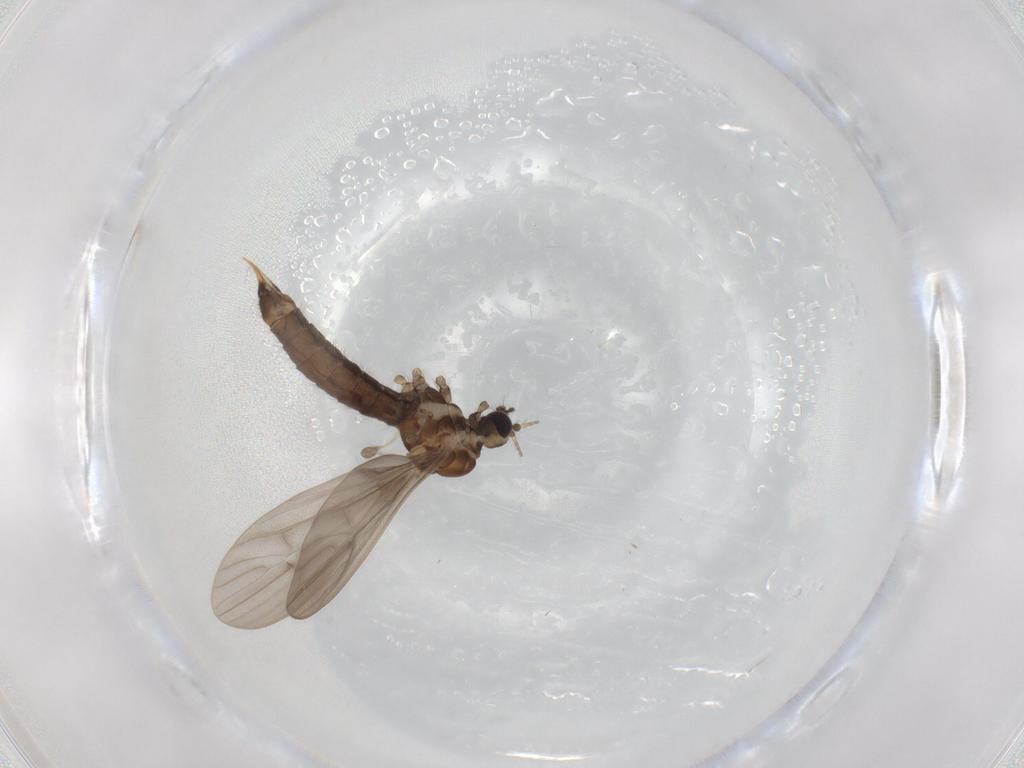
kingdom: Animalia
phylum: Arthropoda
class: Insecta
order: Diptera
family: Limoniidae
